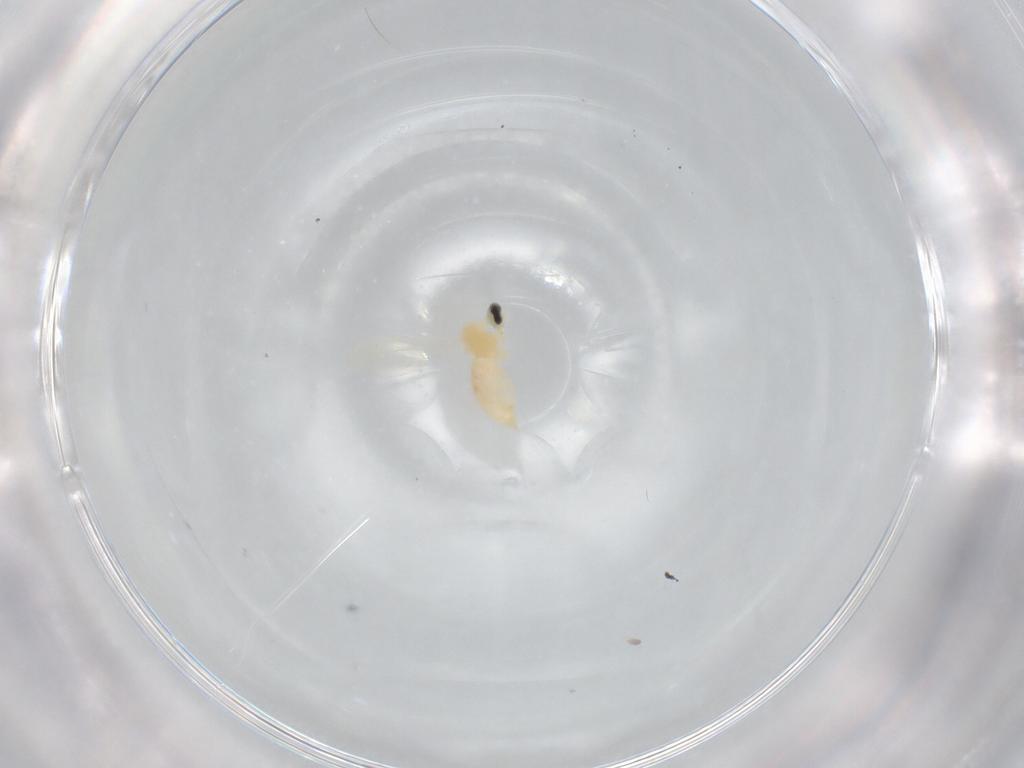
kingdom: Animalia
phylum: Arthropoda
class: Insecta
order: Diptera
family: Cecidomyiidae
